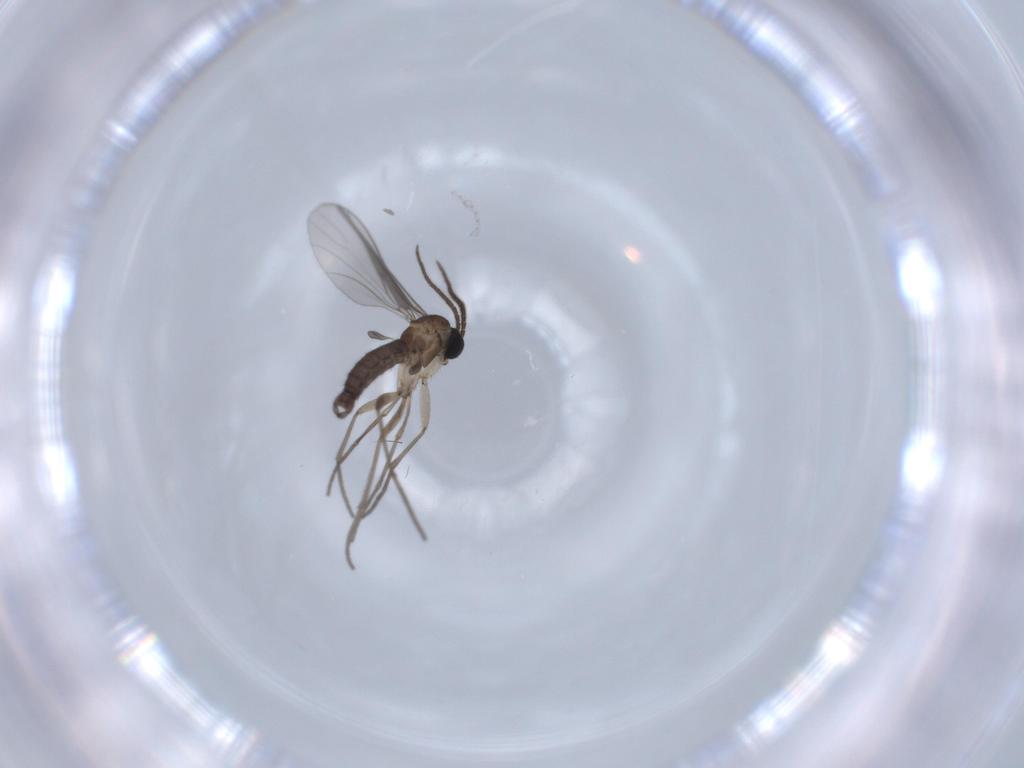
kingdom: Animalia
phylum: Arthropoda
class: Insecta
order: Diptera
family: Sciaridae
